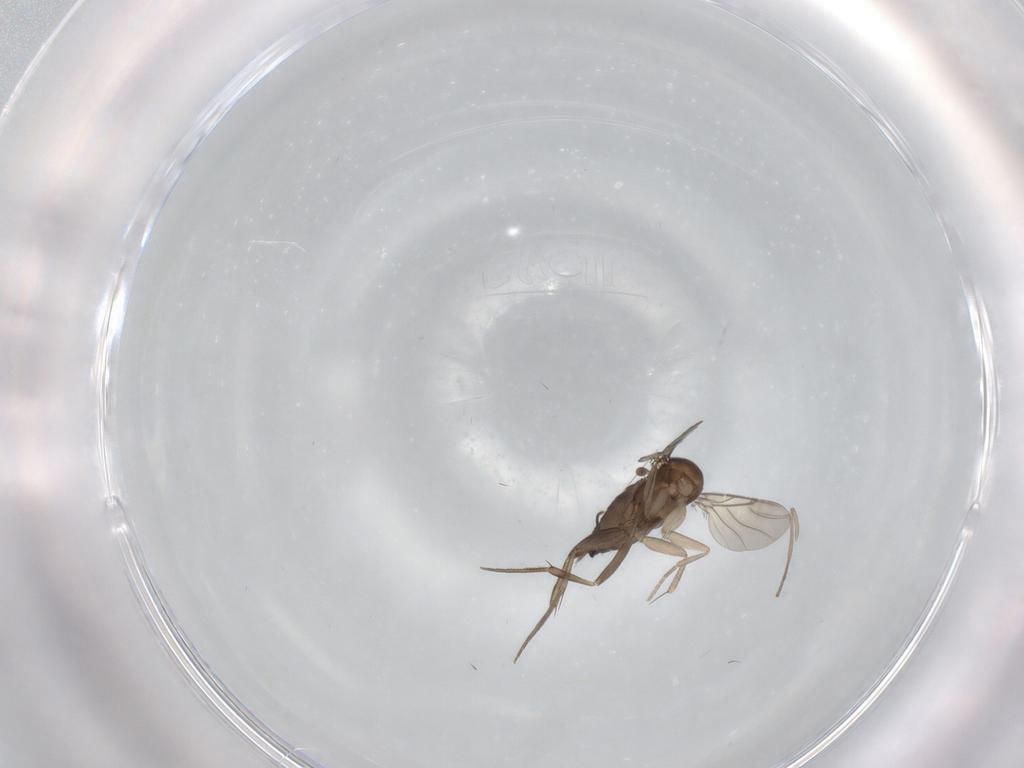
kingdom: Animalia
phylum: Arthropoda
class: Insecta
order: Diptera
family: Phoridae
